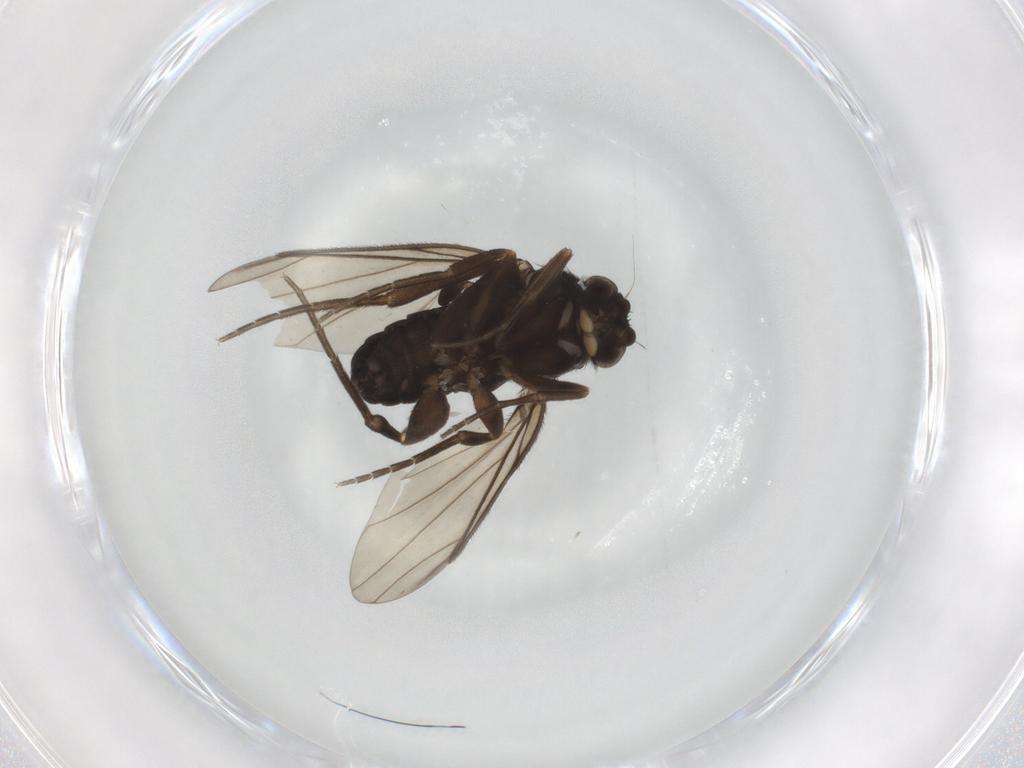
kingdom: Animalia
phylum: Arthropoda
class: Insecta
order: Diptera
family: Phoridae
